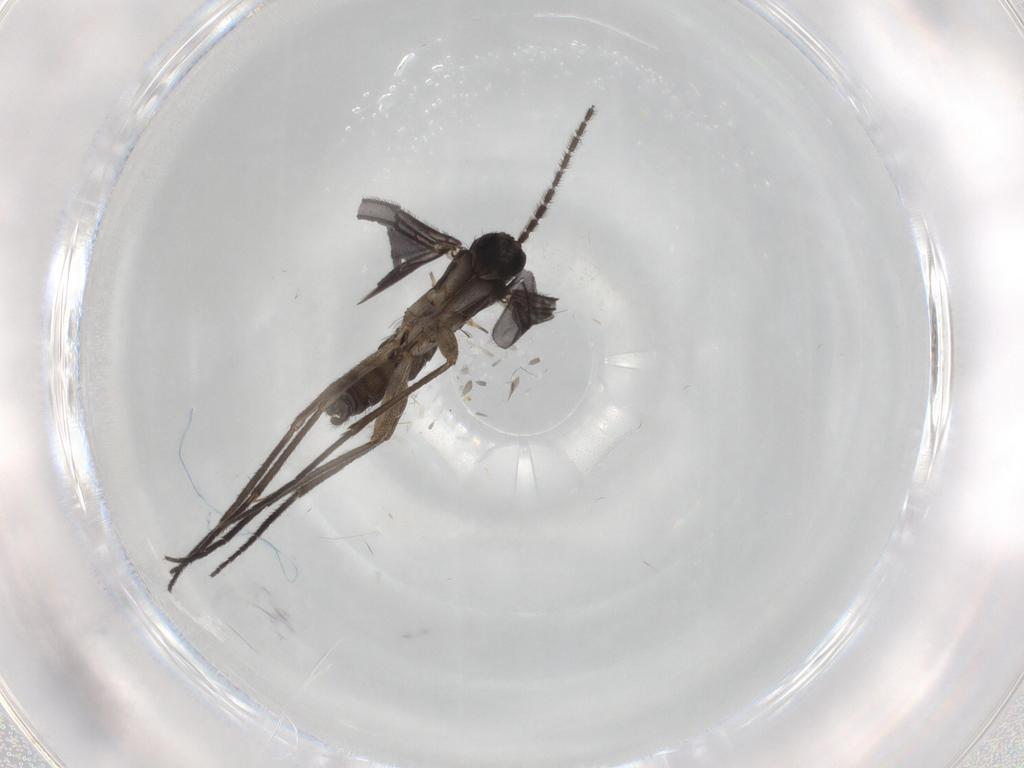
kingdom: Animalia
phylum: Arthropoda
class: Insecta
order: Diptera
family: Sciaridae
